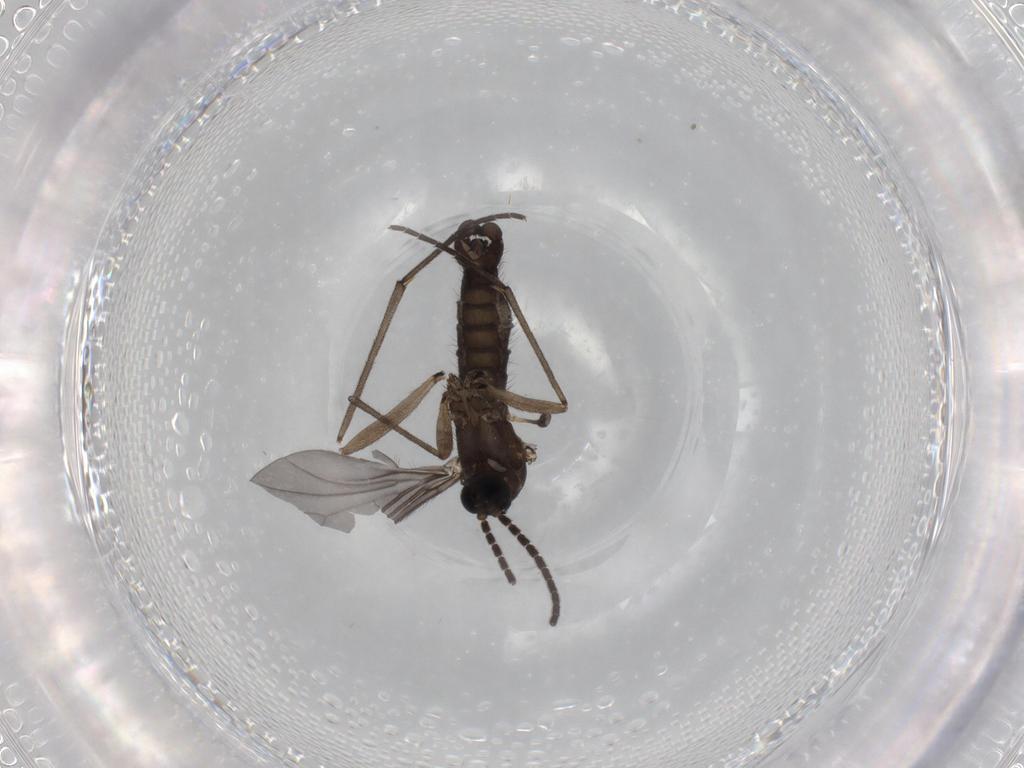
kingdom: Animalia
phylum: Arthropoda
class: Insecta
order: Diptera
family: Sciaridae
